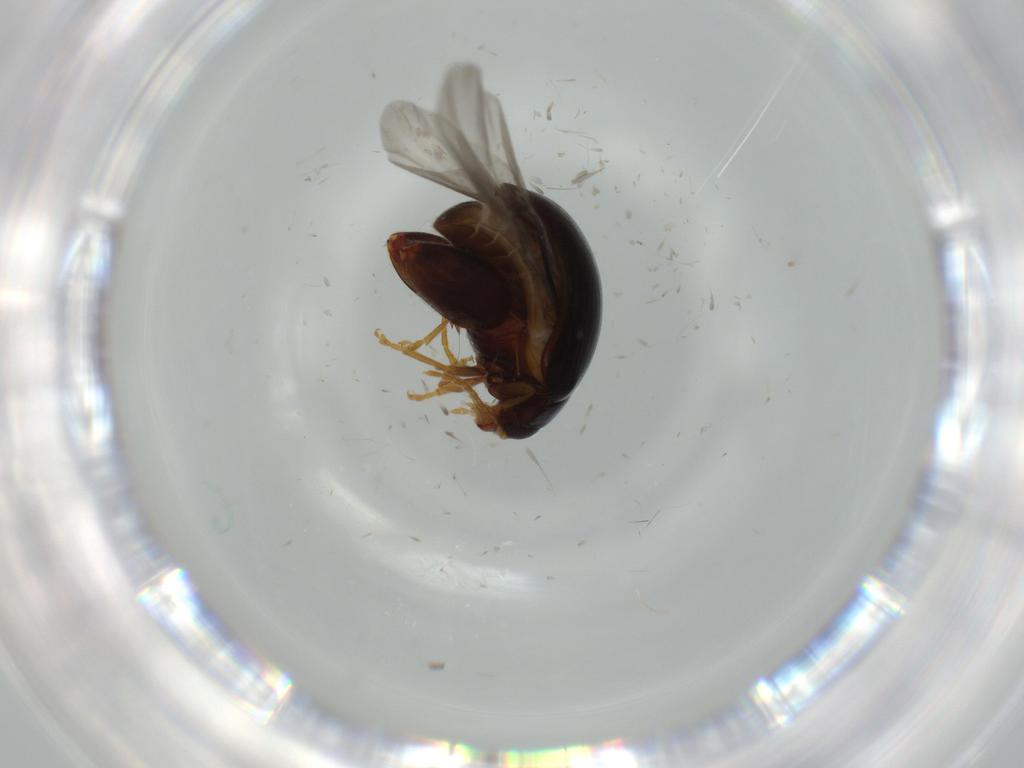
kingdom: Animalia
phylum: Arthropoda
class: Insecta
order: Coleoptera
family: Chrysomelidae
